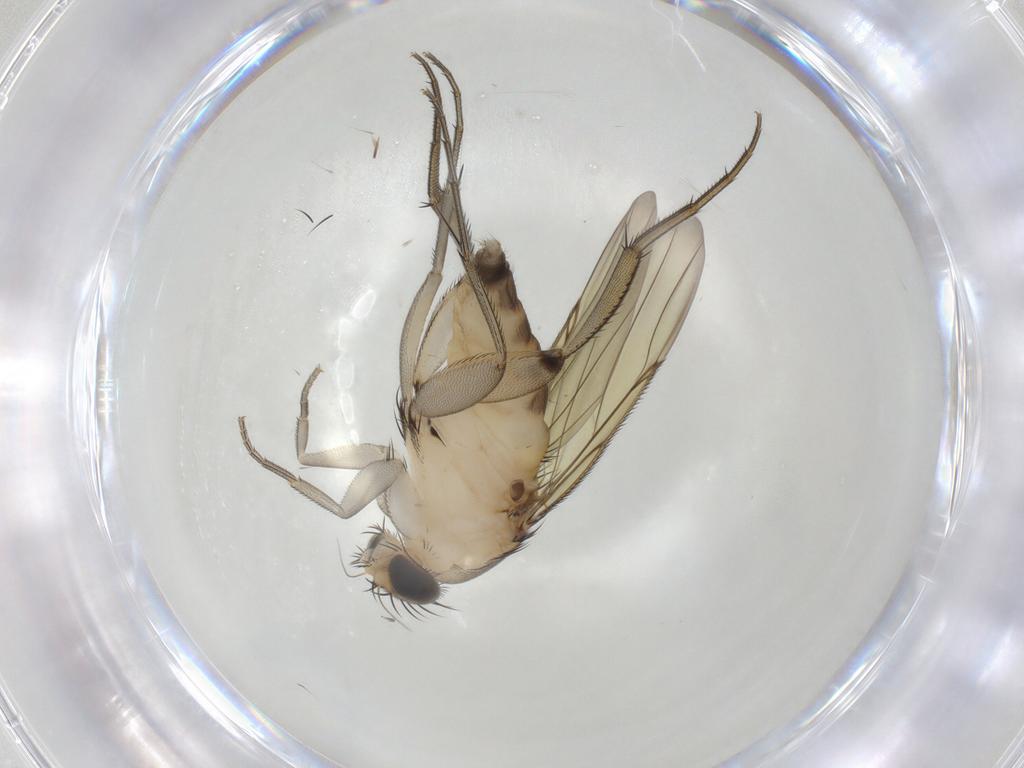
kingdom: Animalia
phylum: Arthropoda
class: Insecta
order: Diptera
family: Phoridae
